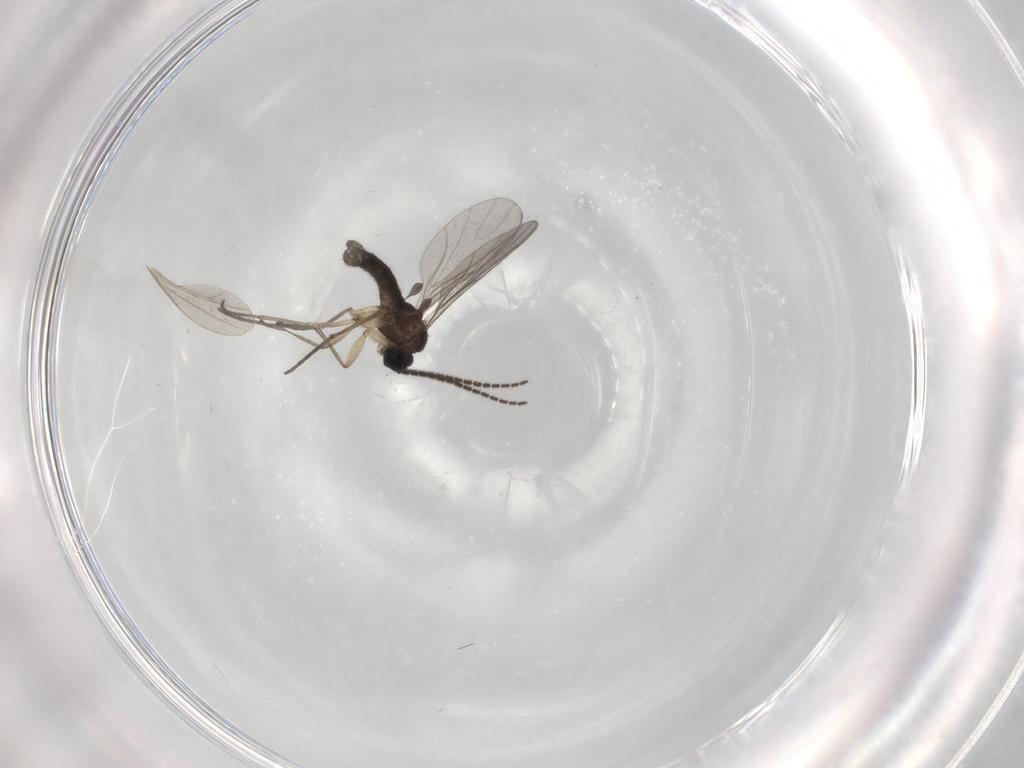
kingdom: Animalia
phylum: Arthropoda
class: Insecta
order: Diptera
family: Sciaridae
